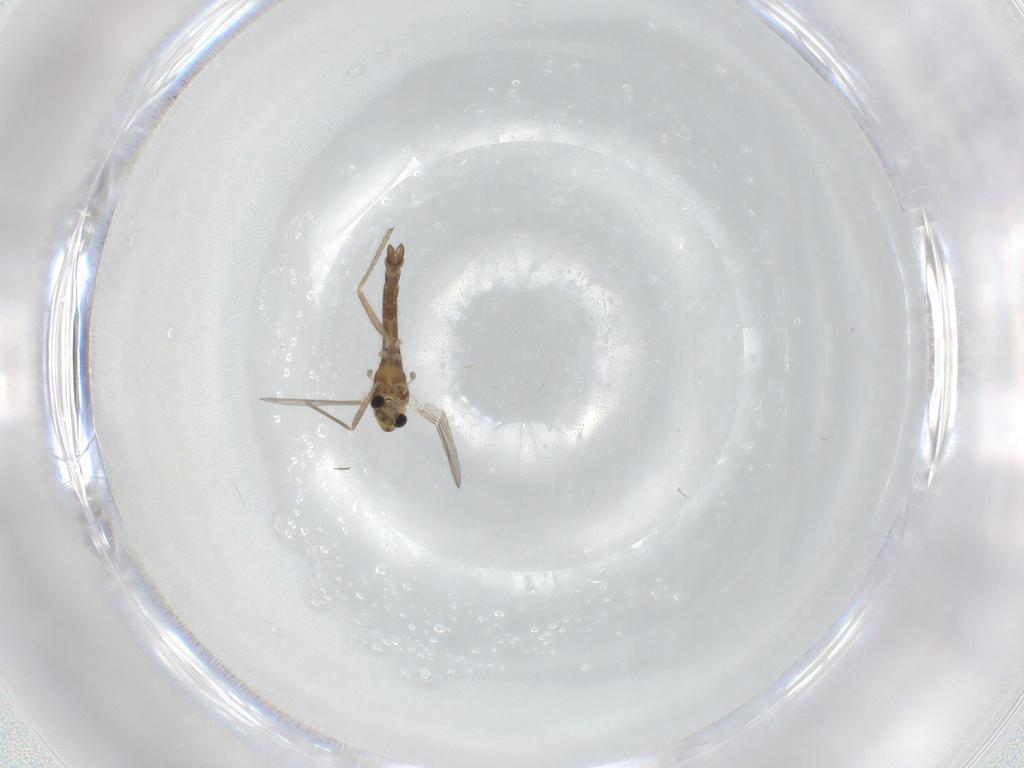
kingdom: Animalia
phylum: Arthropoda
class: Insecta
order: Diptera
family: Chironomidae
